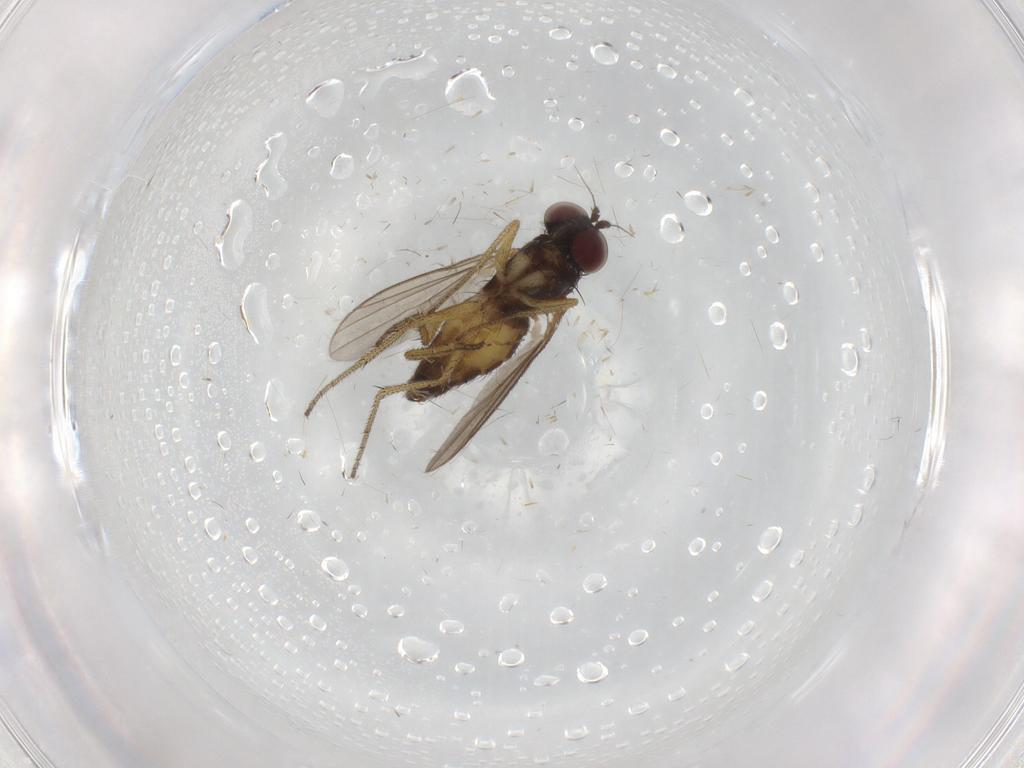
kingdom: Animalia
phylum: Arthropoda
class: Insecta
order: Diptera
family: Chironomidae
